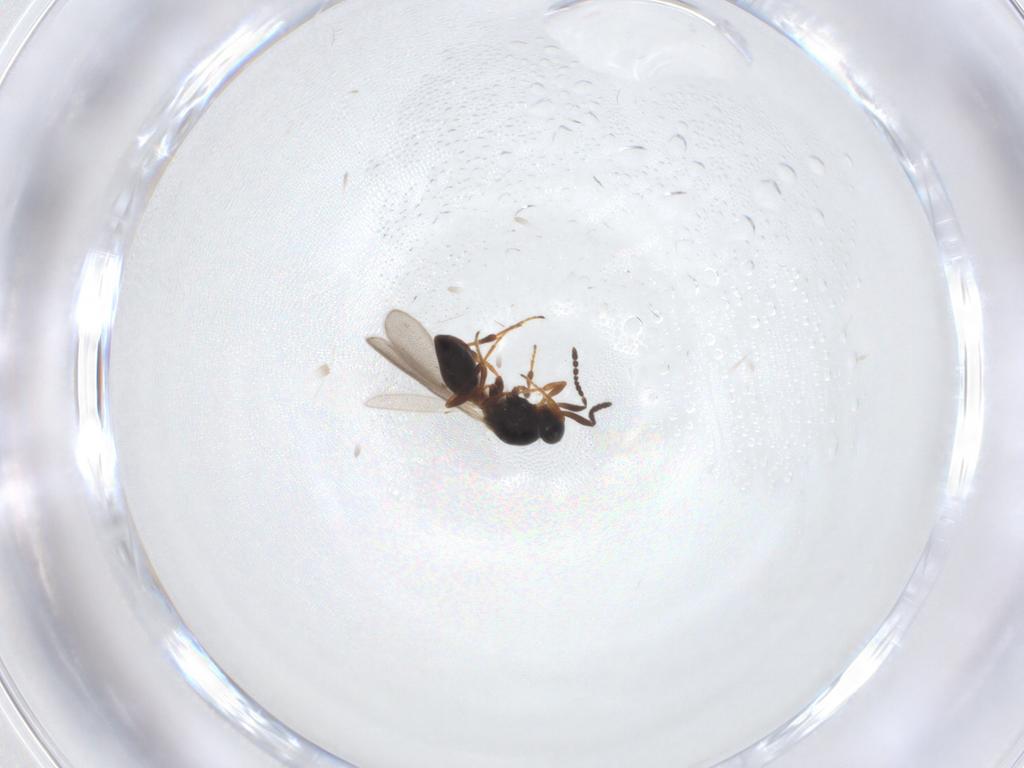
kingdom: Animalia
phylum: Arthropoda
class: Insecta
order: Hymenoptera
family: Platygastridae
